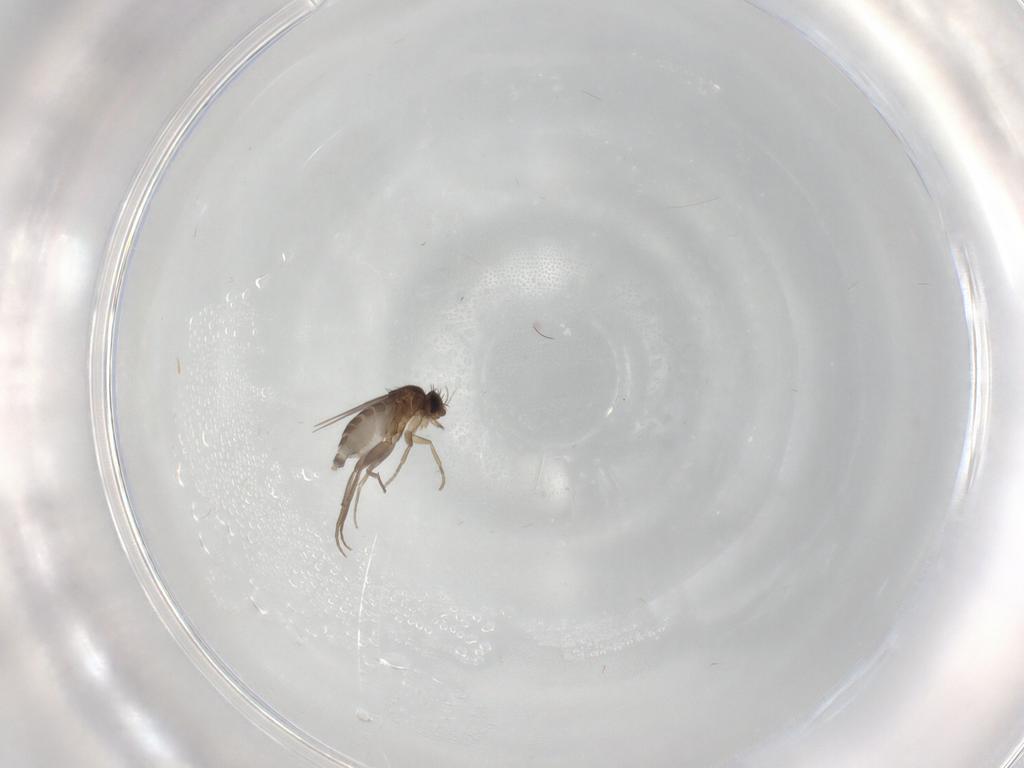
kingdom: Animalia
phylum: Arthropoda
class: Insecta
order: Diptera
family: Phoridae
